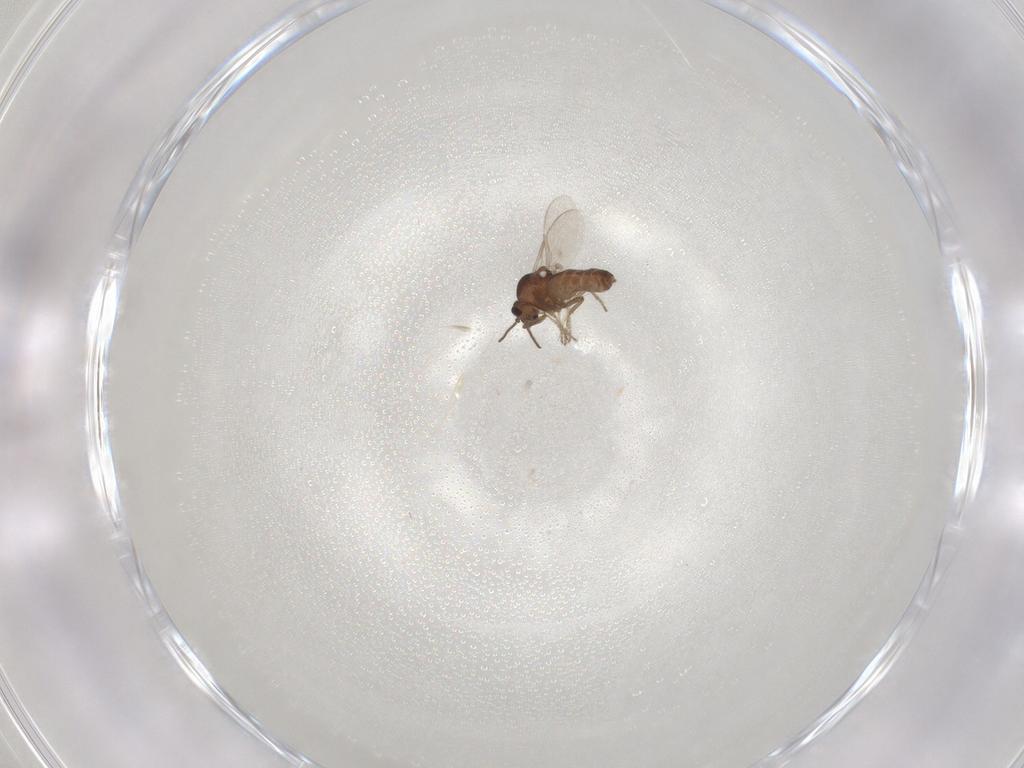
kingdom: Animalia
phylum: Arthropoda
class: Insecta
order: Diptera
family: Ceratopogonidae
